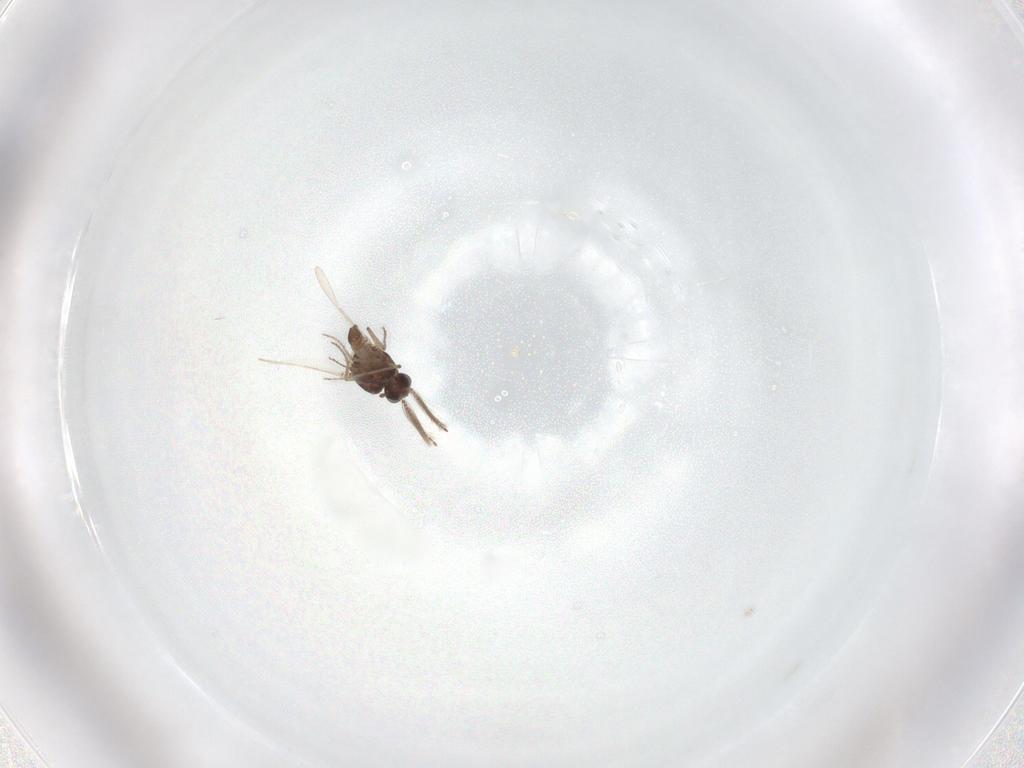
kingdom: Animalia
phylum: Arthropoda
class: Insecta
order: Diptera
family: Ceratopogonidae
